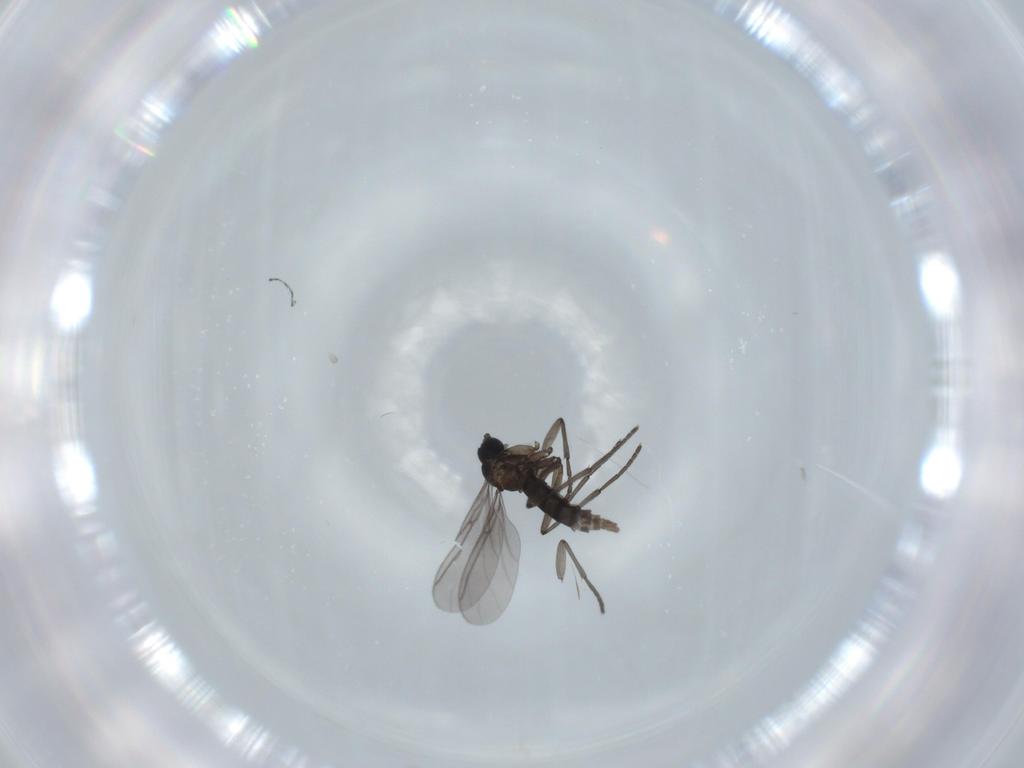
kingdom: Animalia
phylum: Arthropoda
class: Insecta
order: Diptera
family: Sciaridae
